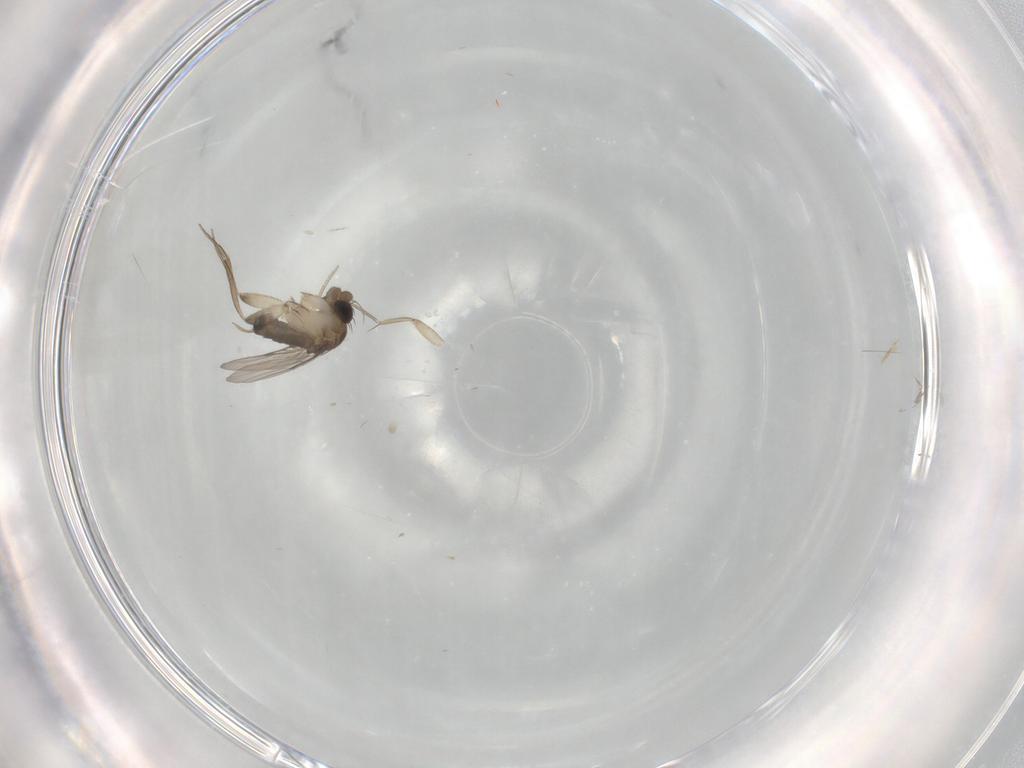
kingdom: Animalia
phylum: Arthropoda
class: Insecta
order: Diptera
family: Phoridae
